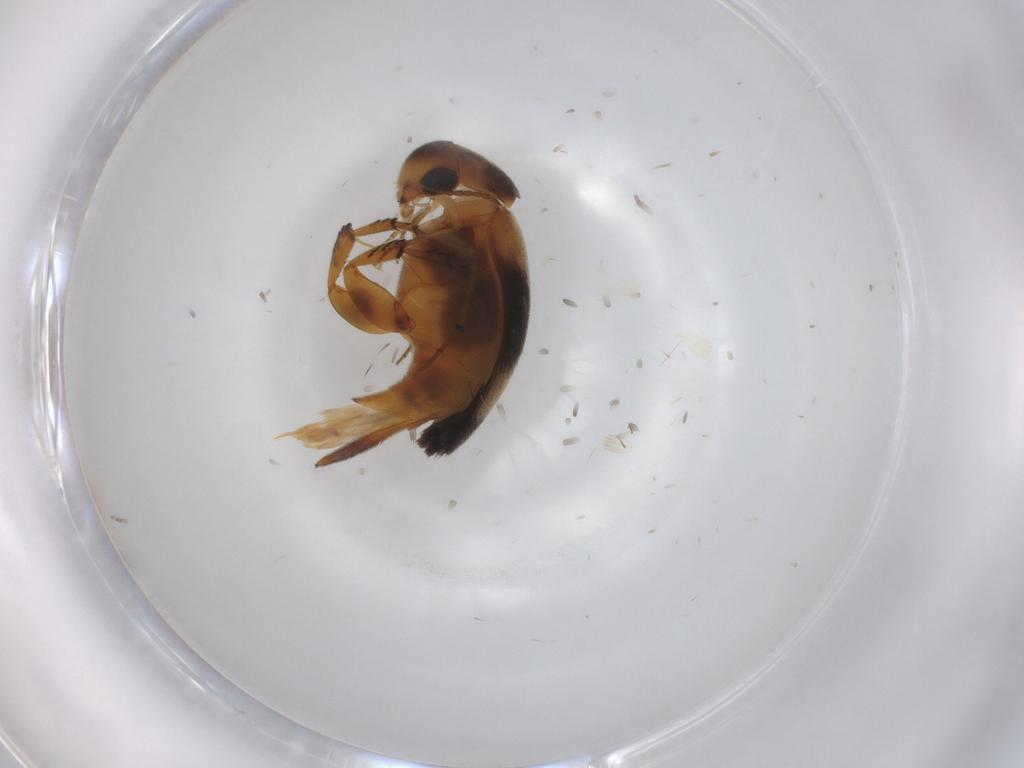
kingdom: Animalia
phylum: Arthropoda
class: Insecta
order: Coleoptera
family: Mordellidae
